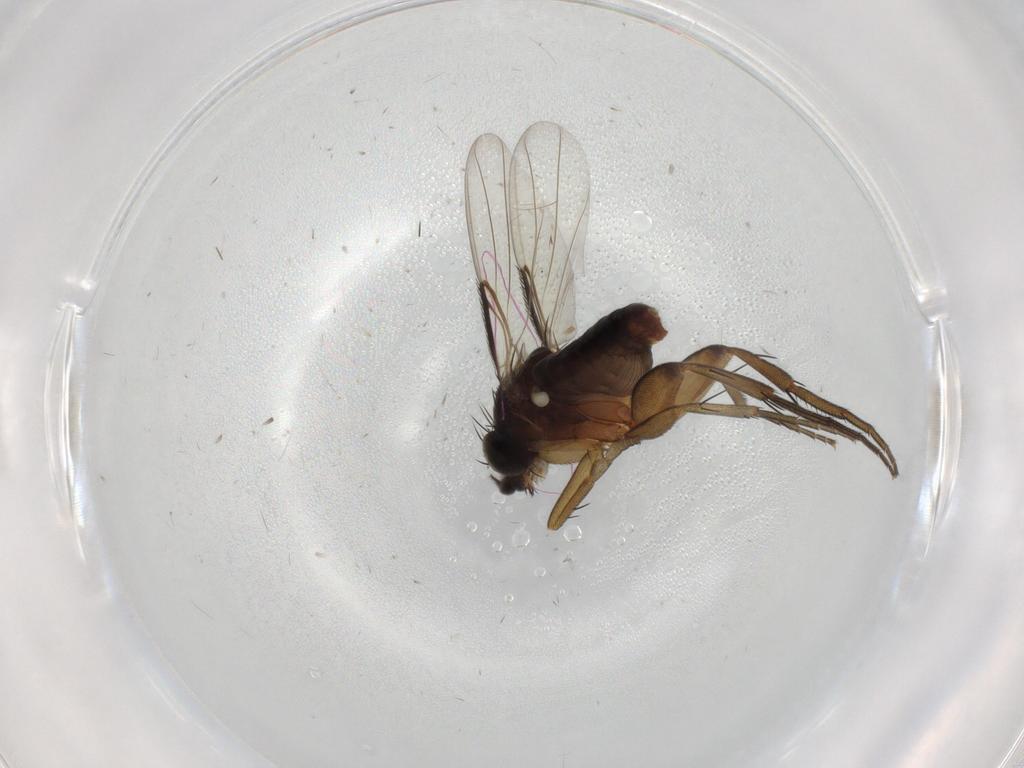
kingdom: Animalia
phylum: Arthropoda
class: Insecta
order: Diptera
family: Phoridae
